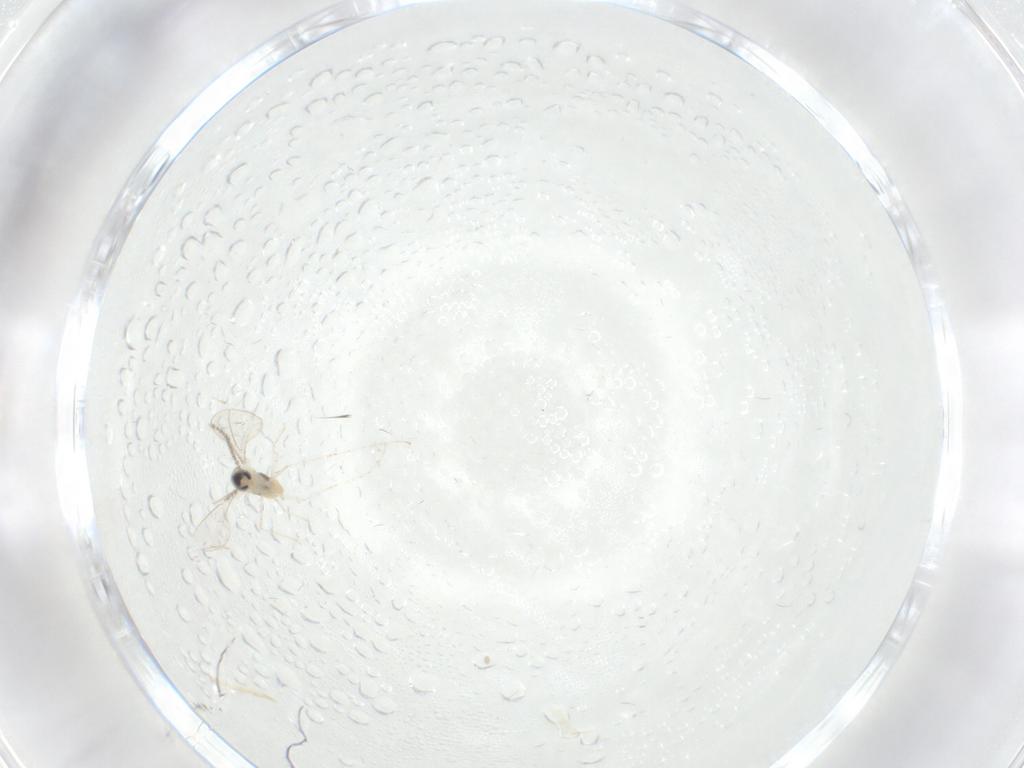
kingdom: Animalia
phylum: Arthropoda
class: Insecta
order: Diptera
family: Cecidomyiidae
